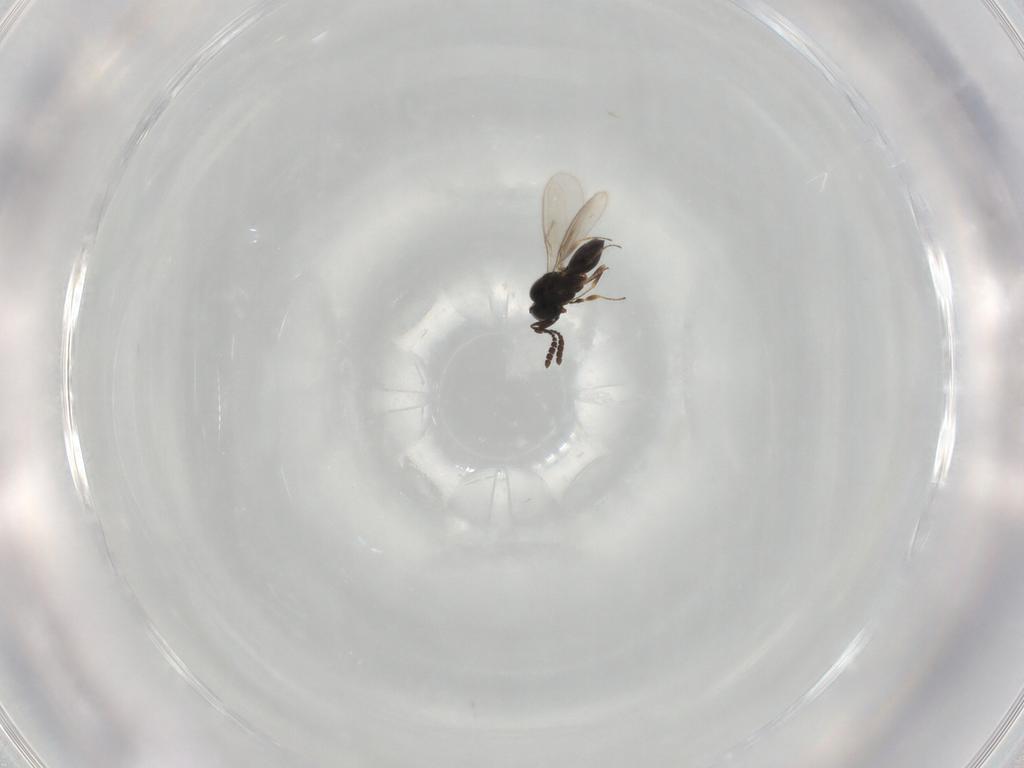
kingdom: Animalia
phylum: Arthropoda
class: Insecta
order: Hymenoptera
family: Scelionidae
